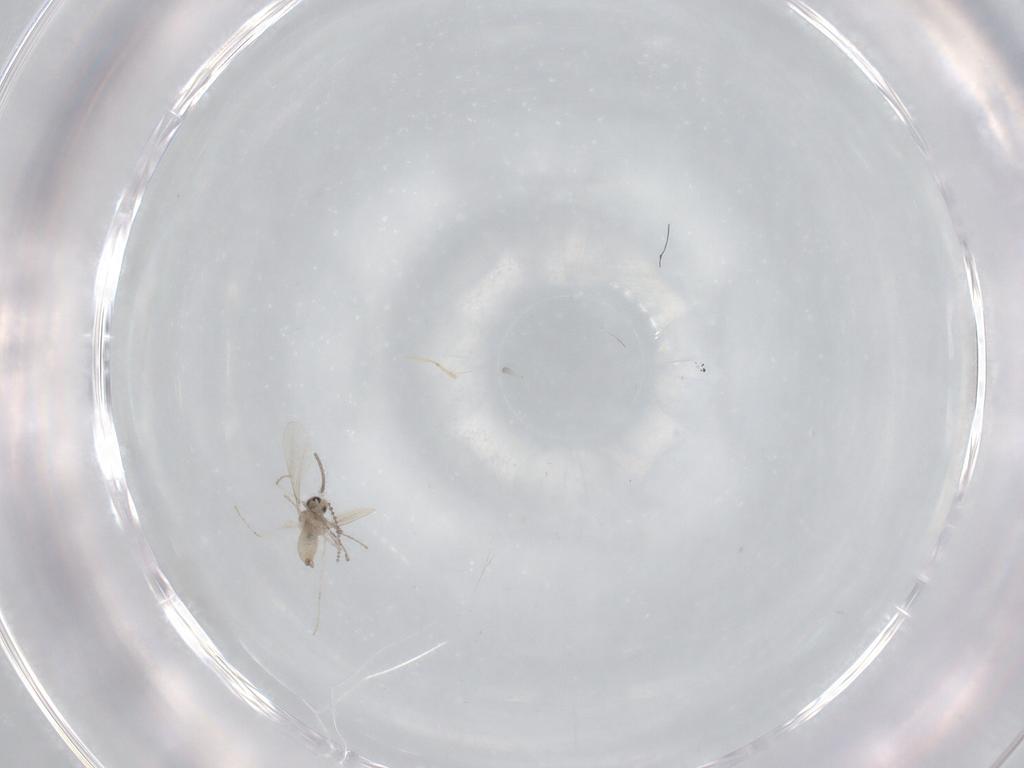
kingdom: Animalia
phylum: Arthropoda
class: Insecta
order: Diptera
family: Cecidomyiidae
